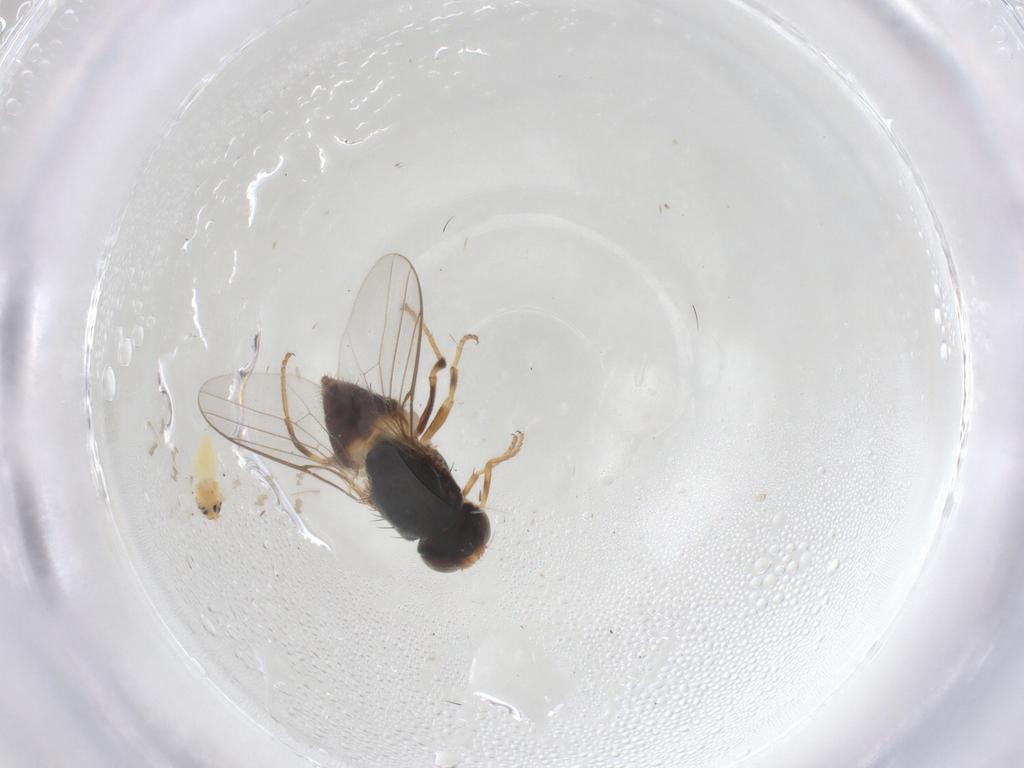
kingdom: Animalia
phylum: Arthropoda
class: Insecta
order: Diptera
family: Chloropidae
